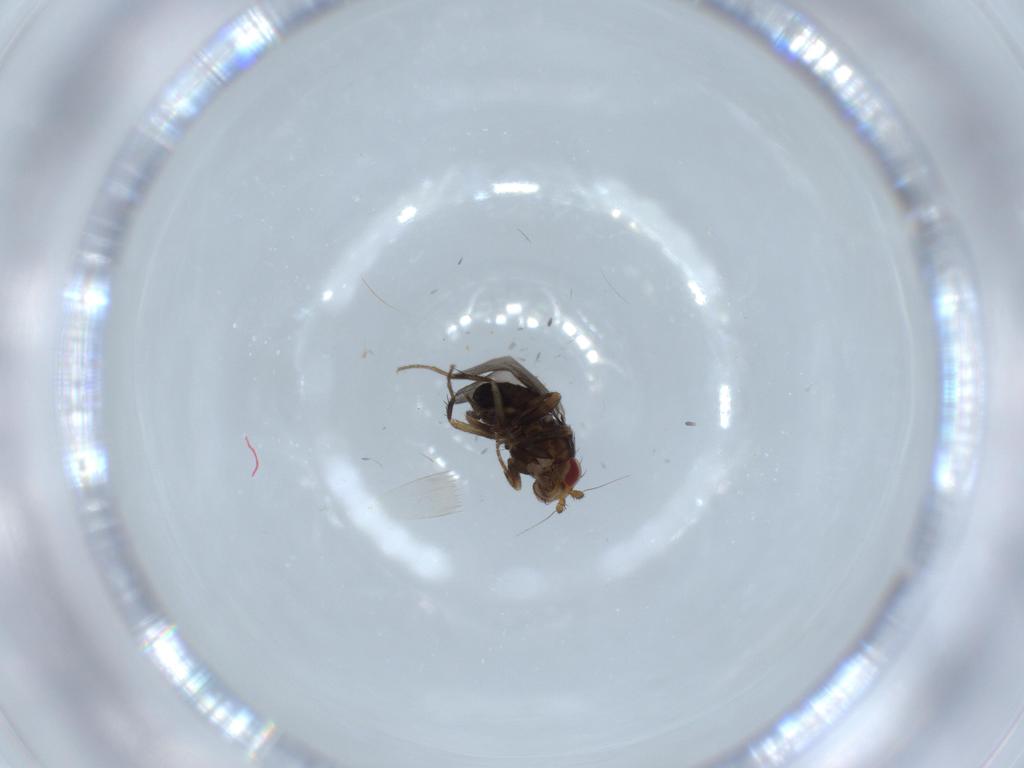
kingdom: Animalia
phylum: Arthropoda
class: Insecta
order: Diptera
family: Sphaeroceridae
